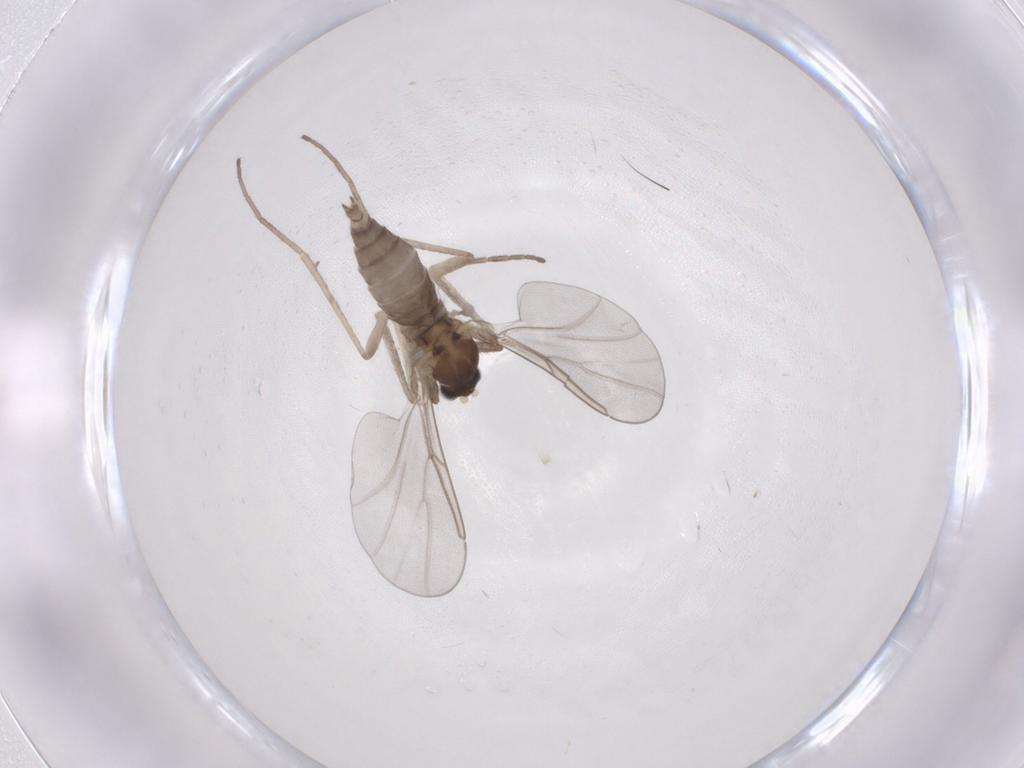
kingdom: Animalia
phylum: Arthropoda
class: Insecta
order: Diptera
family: Cecidomyiidae
